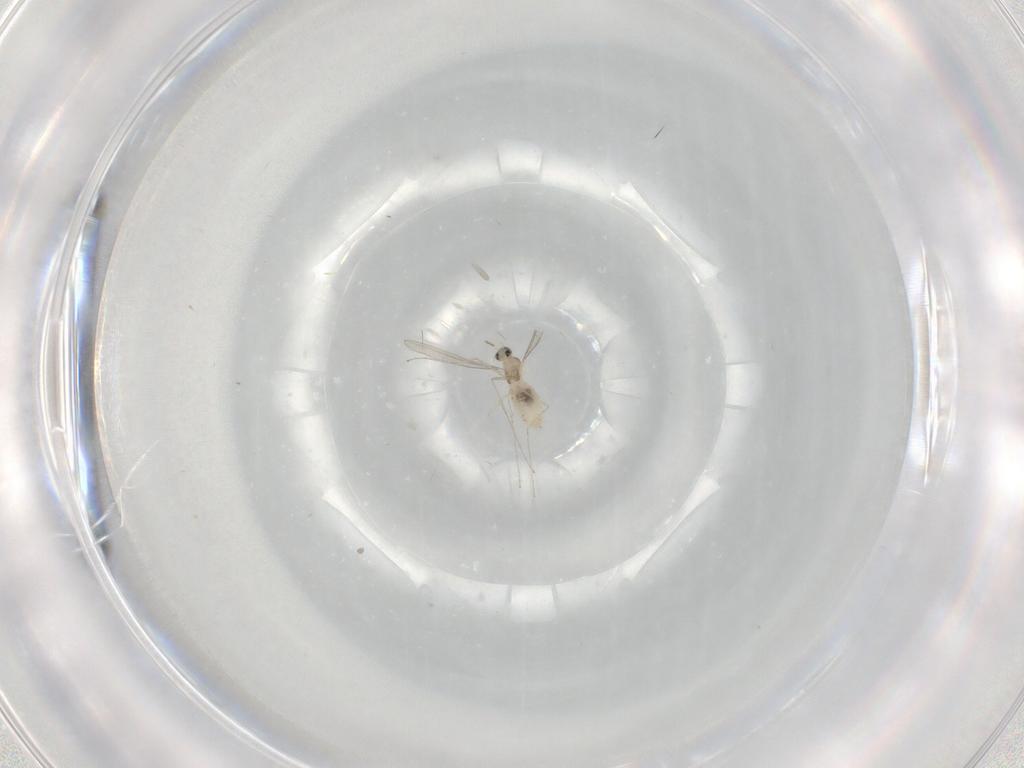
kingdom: Animalia
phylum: Arthropoda
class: Insecta
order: Diptera
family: Cecidomyiidae
